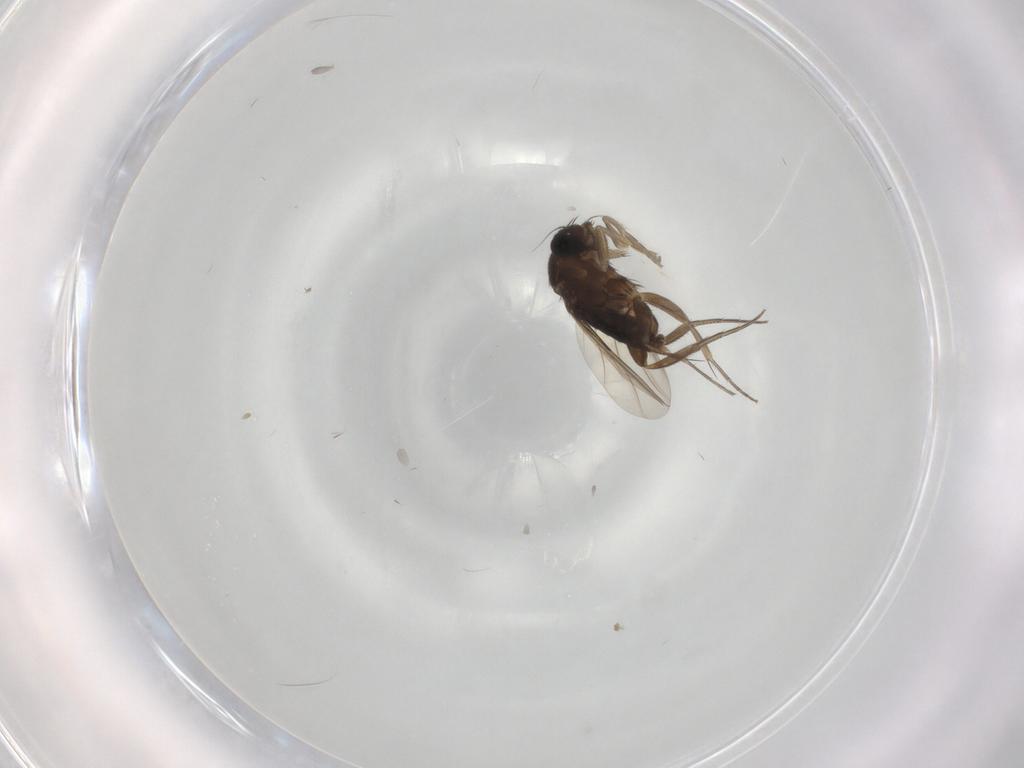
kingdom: Animalia
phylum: Arthropoda
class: Insecta
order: Diptera
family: Phoridae
